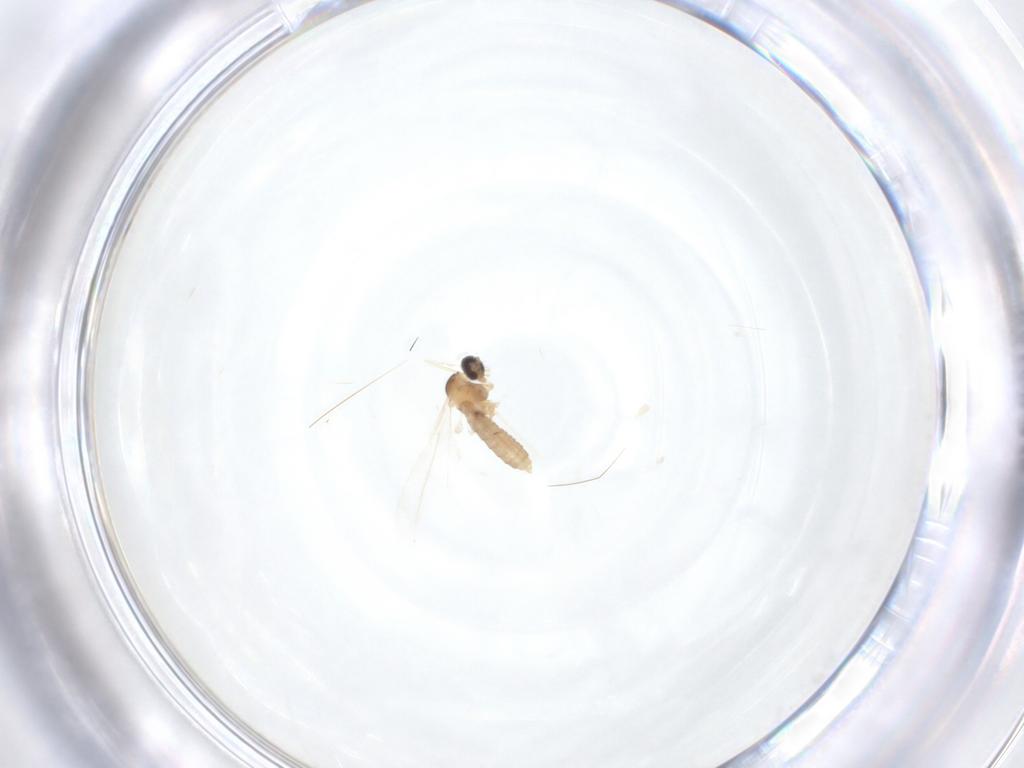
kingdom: Animalia
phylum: Arthropoda
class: Insecta
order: Diptera
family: Cecidomyiidae
